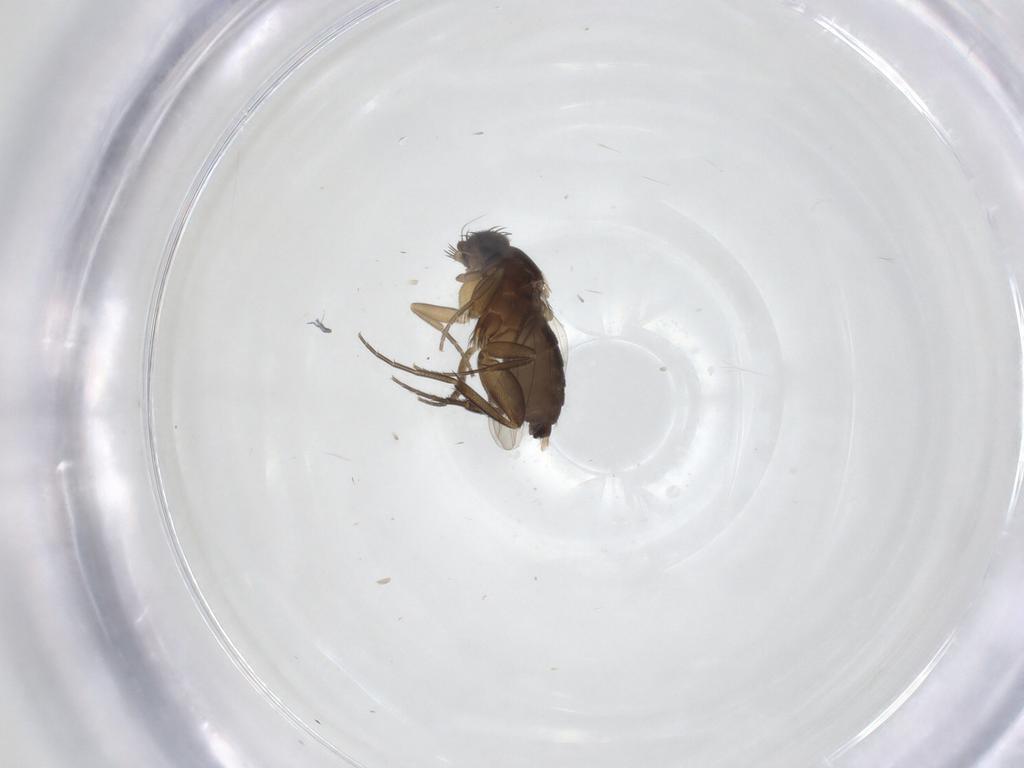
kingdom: Animalia
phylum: Arthropoda
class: Insecta
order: Diptera
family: Phoridae
